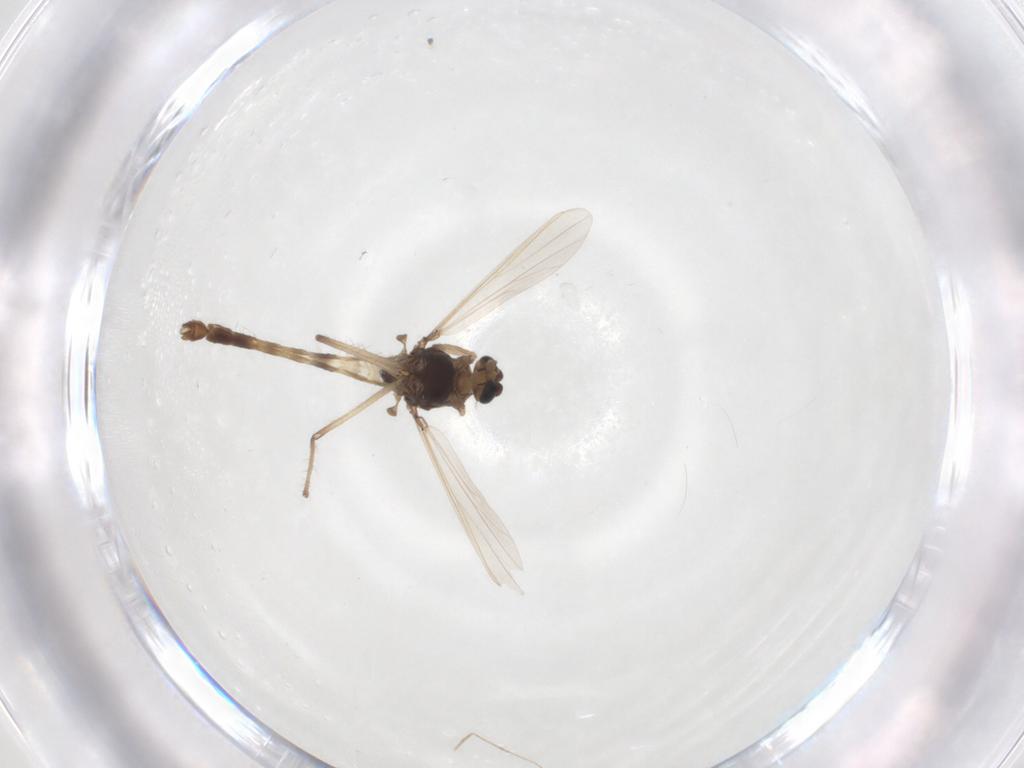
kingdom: Animalia
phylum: Arthropoda
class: Insecta
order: Diptera
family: Chironomidae
